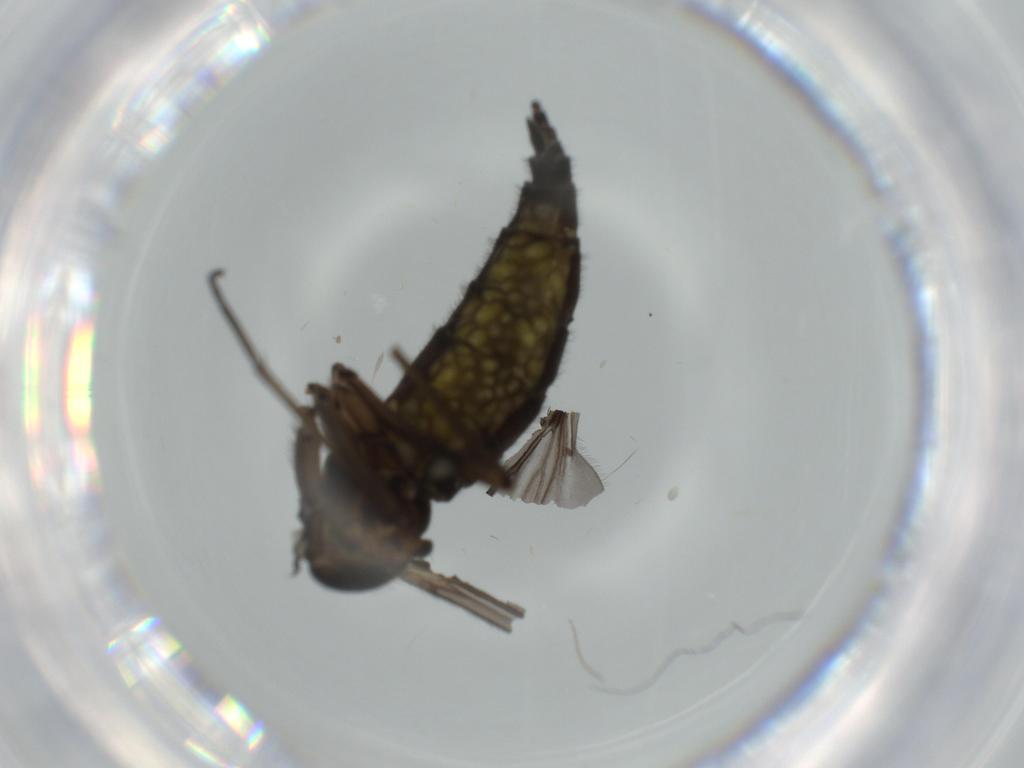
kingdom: Animalia
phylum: Arthropoda
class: Insecta
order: Diptera
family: Sciaridae
